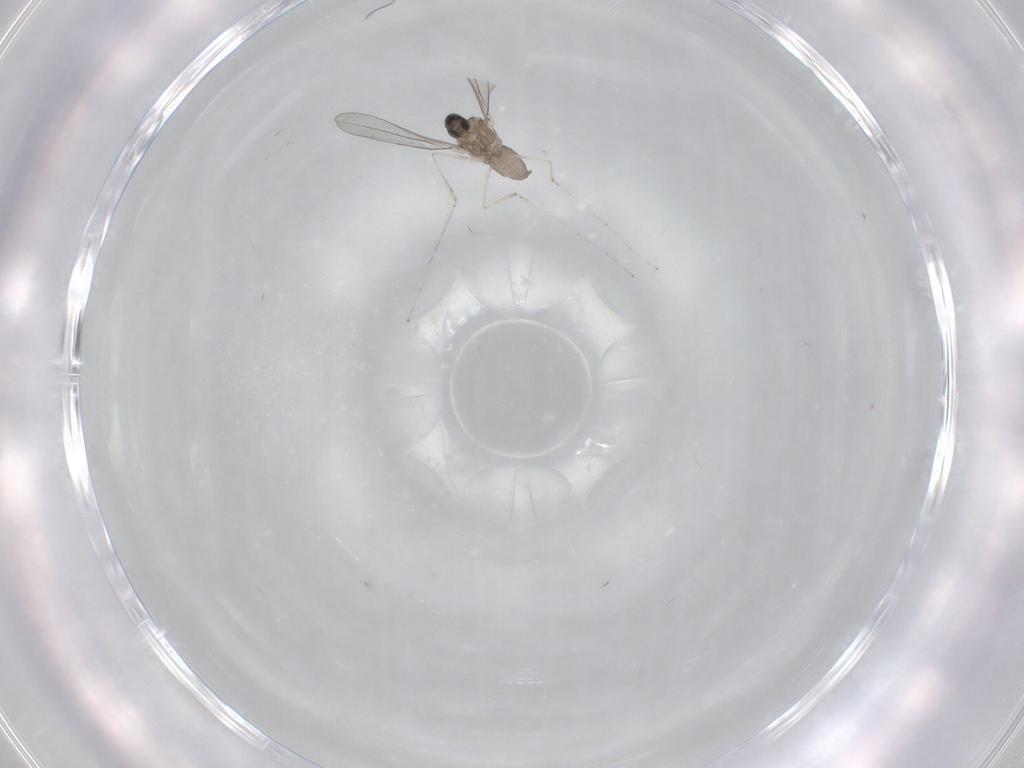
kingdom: Animalia
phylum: Arthropoda
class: Insecta
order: Diptera
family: Cecidomyiidae
